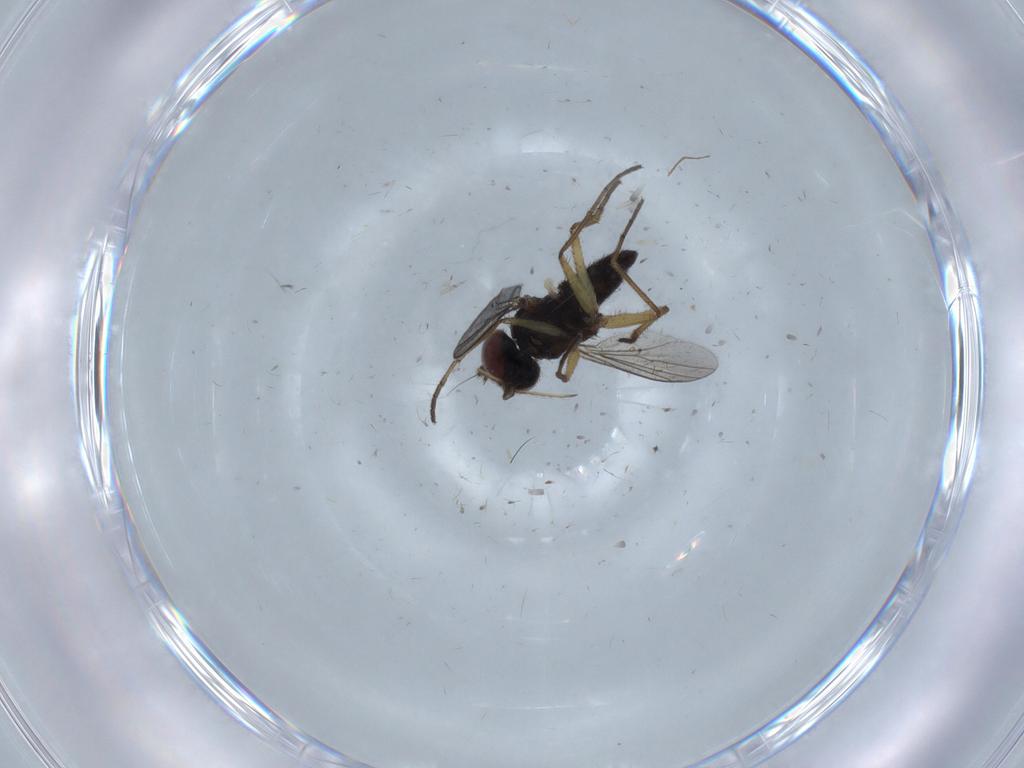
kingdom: Animalia
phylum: Arthropoda
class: Insecta
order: Diptera
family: Dolichopodidae
